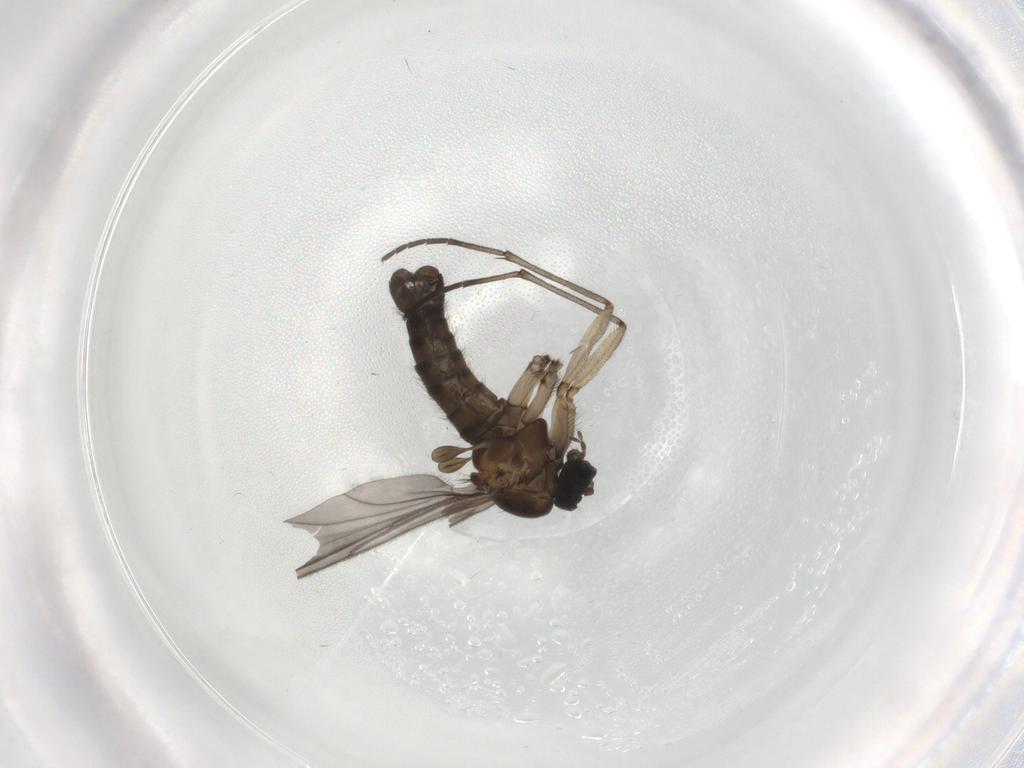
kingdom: Animalia
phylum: Arthropoda
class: Insecta
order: Diptera
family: Sciaridae
